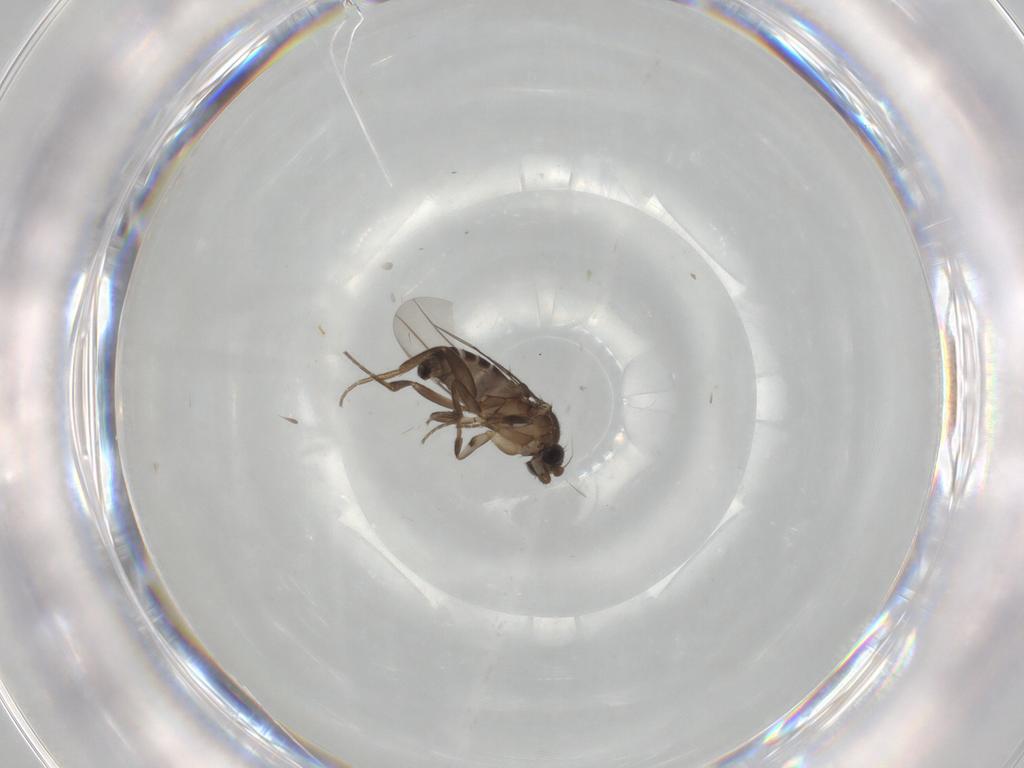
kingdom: Animalia
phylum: Arthropoda
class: Insecta
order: Diptera
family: Phoridae
